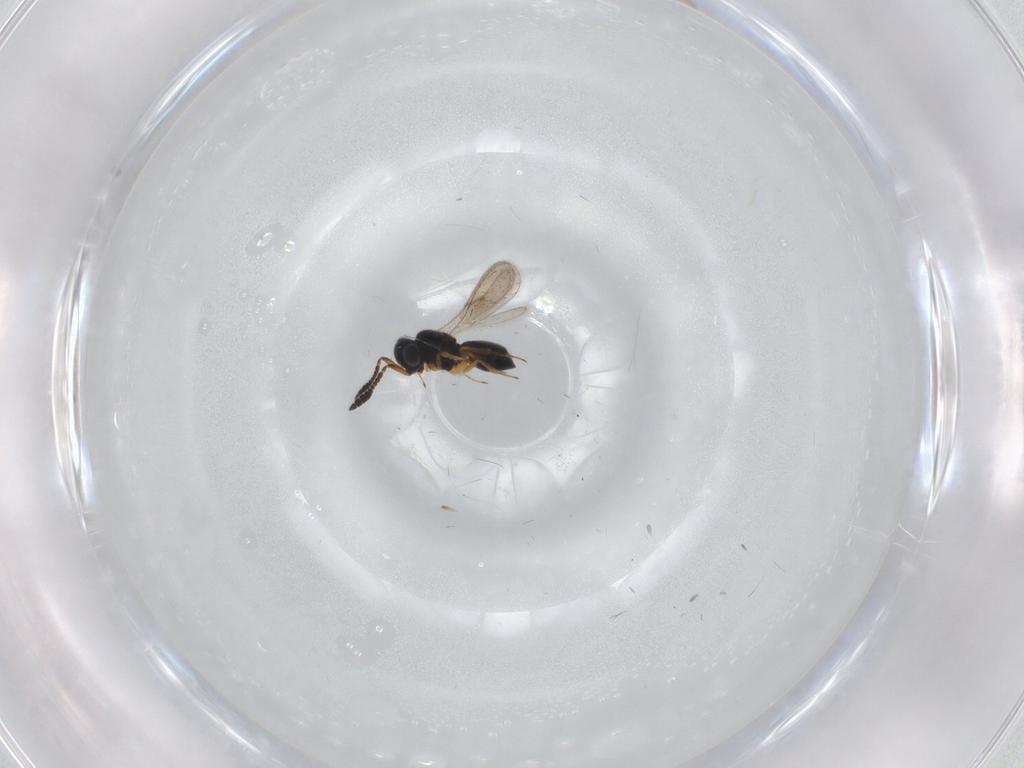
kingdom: Animalia
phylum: Arthropoda
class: Insecta
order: Hymenoptera
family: Scelionidae
